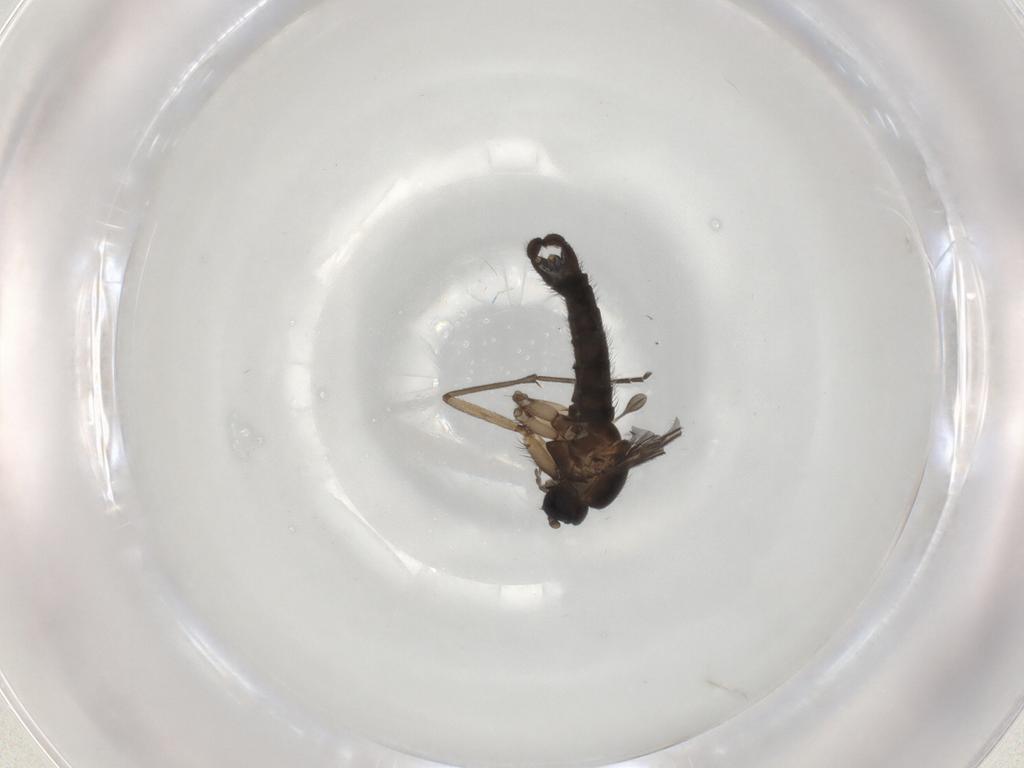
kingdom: Animalia
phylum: Arthropoda
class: Insecta
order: Diptera
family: Sciaridae
